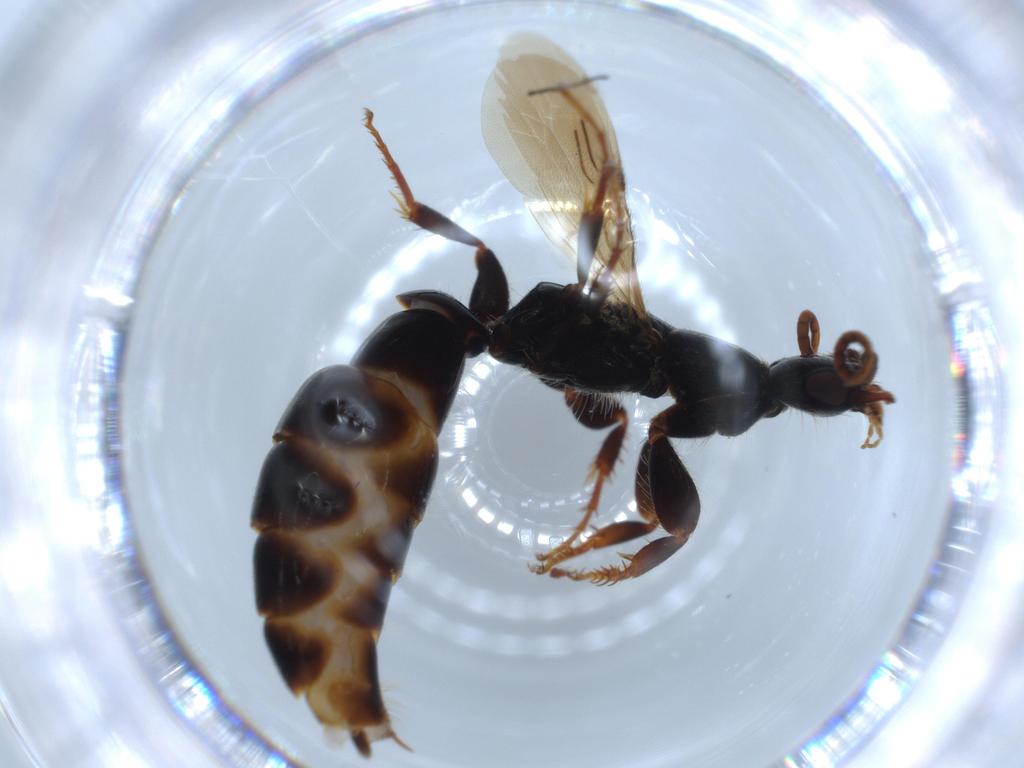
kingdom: Animalia
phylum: Arthropoda
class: Insecta
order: Hymenoptera
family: Bethylidae
